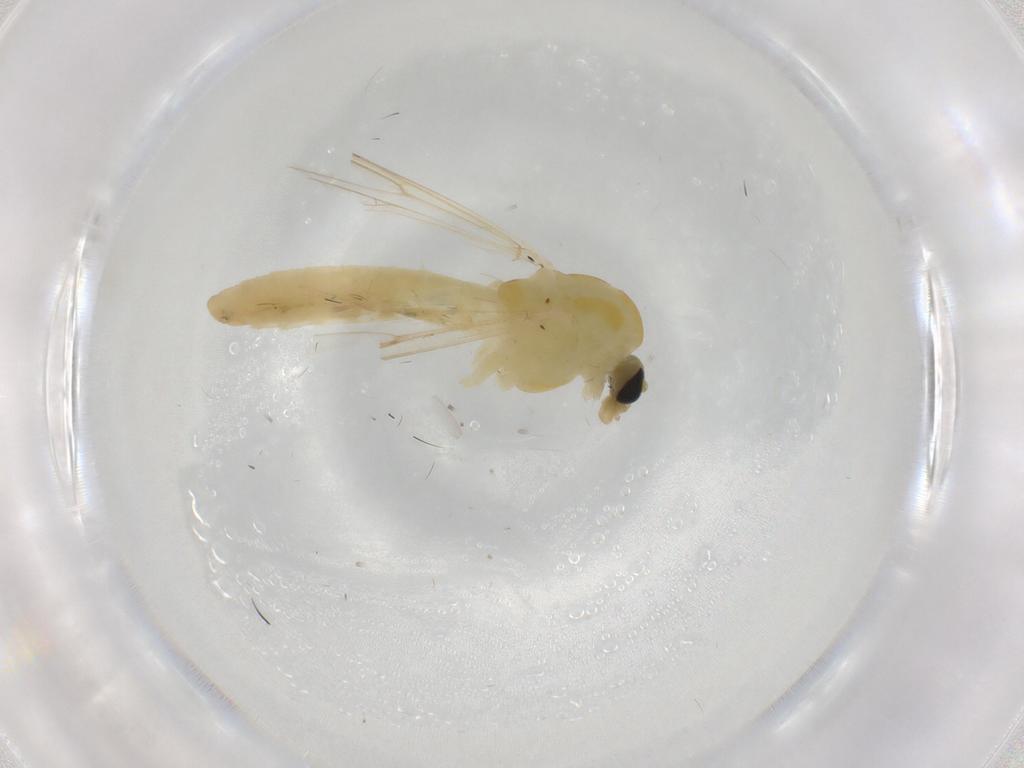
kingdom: Animalia
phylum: Arthropoda
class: Insecta
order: Diptera
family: Chironomidae
